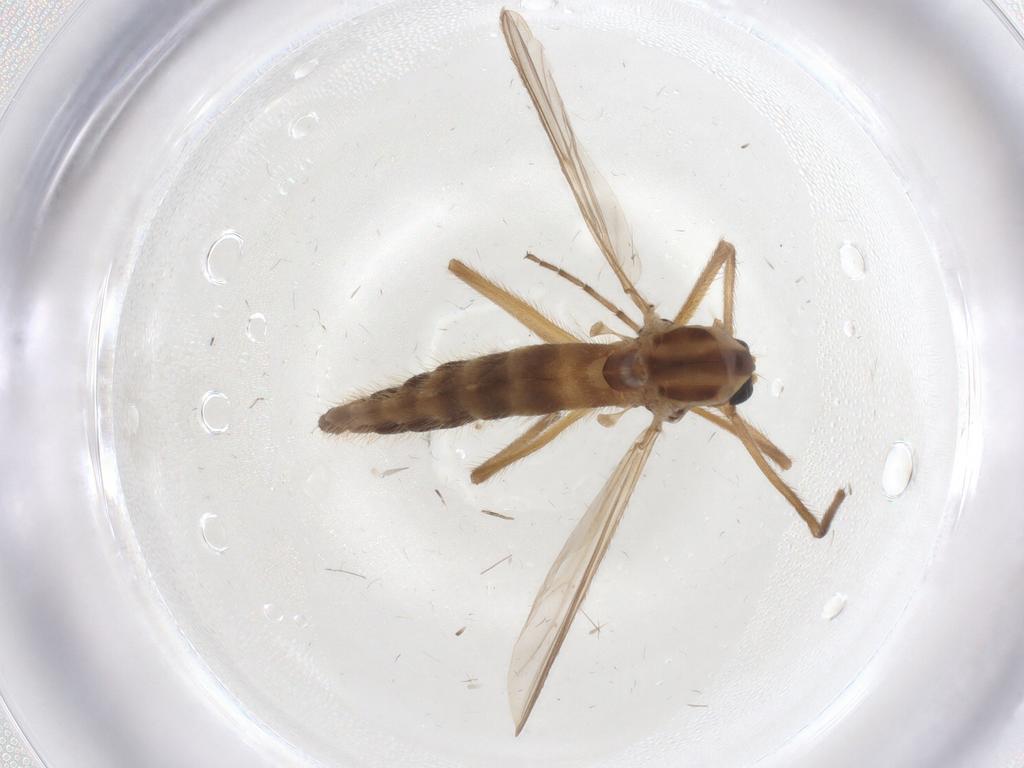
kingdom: Animalia
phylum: Arthropoda
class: Insecta
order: Diptera
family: Chironomidae
